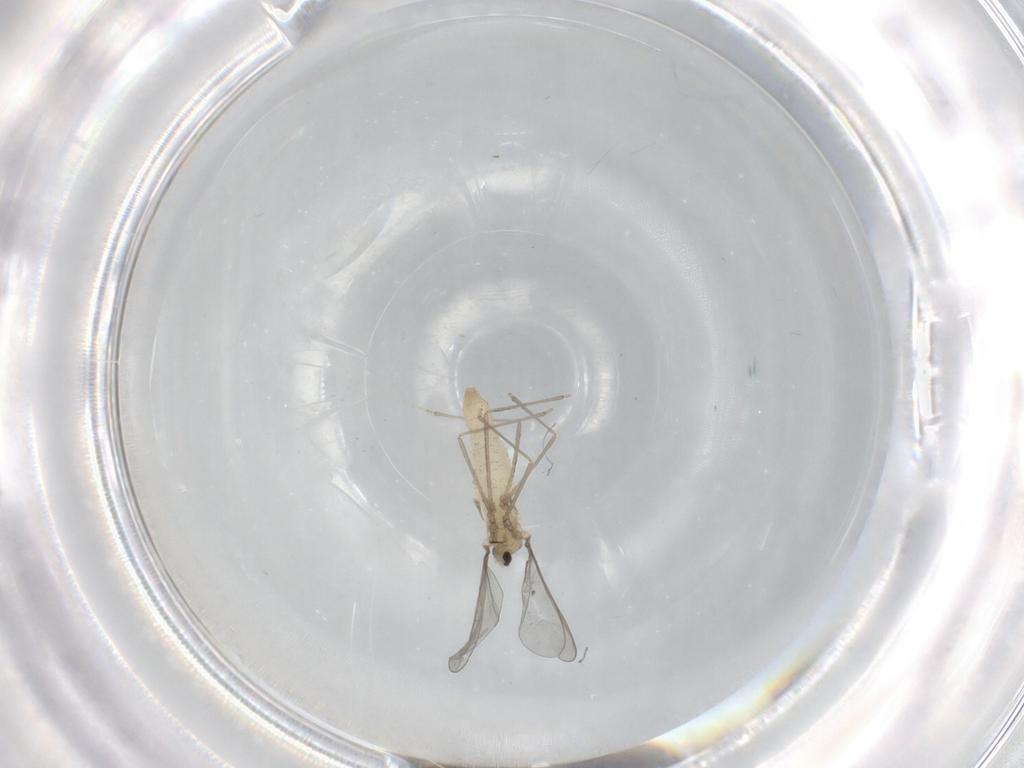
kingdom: Animalia
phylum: Arthropoda
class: Insecta
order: Diptera
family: Cecidomyiidae
